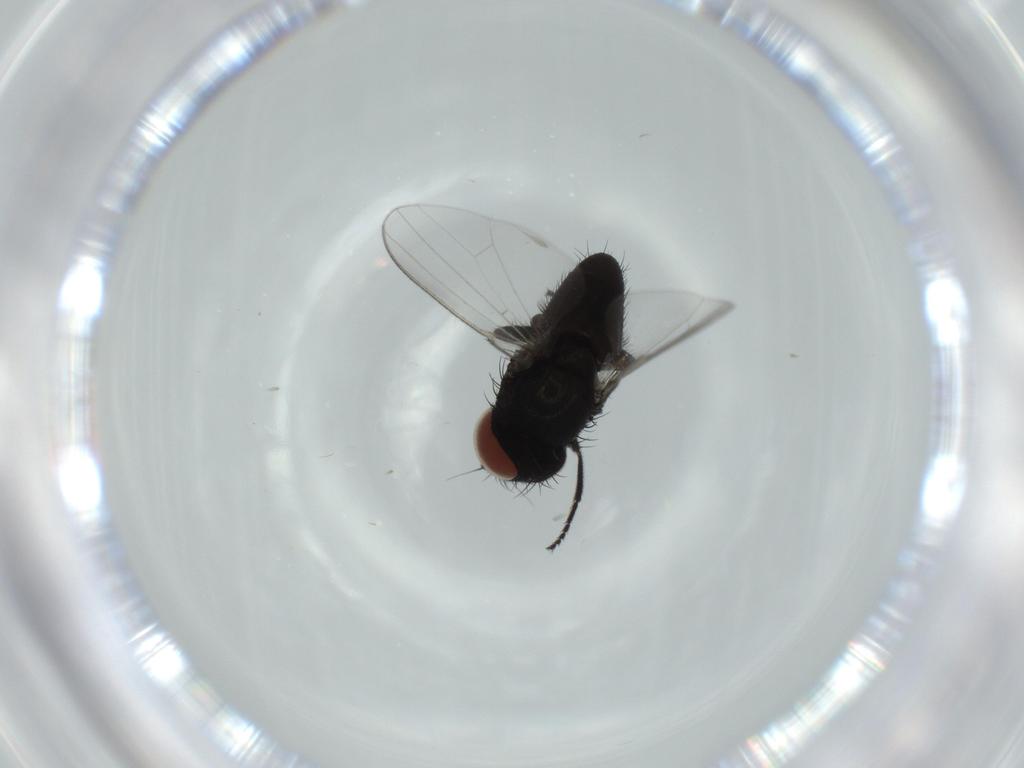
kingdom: Animalia
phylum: Arthropoda
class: Insecta
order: Diptera
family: Milichiidae
